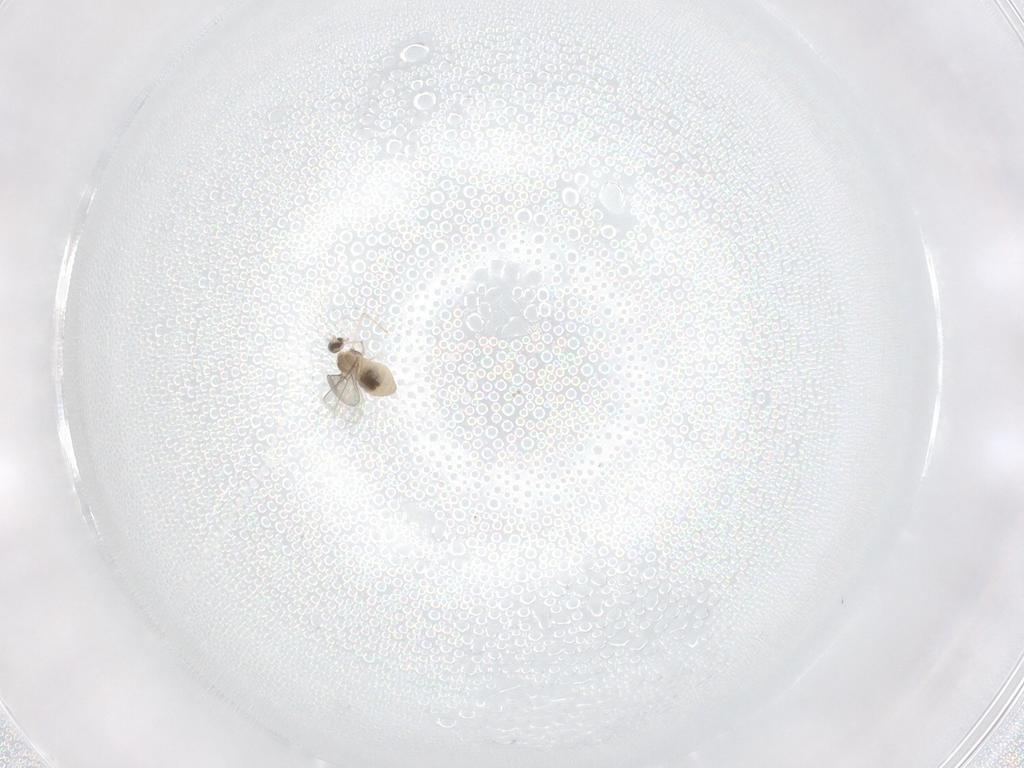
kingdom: Animalia
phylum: Arthropoda
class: Insecta
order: Diptera
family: Cecidomyiidae
